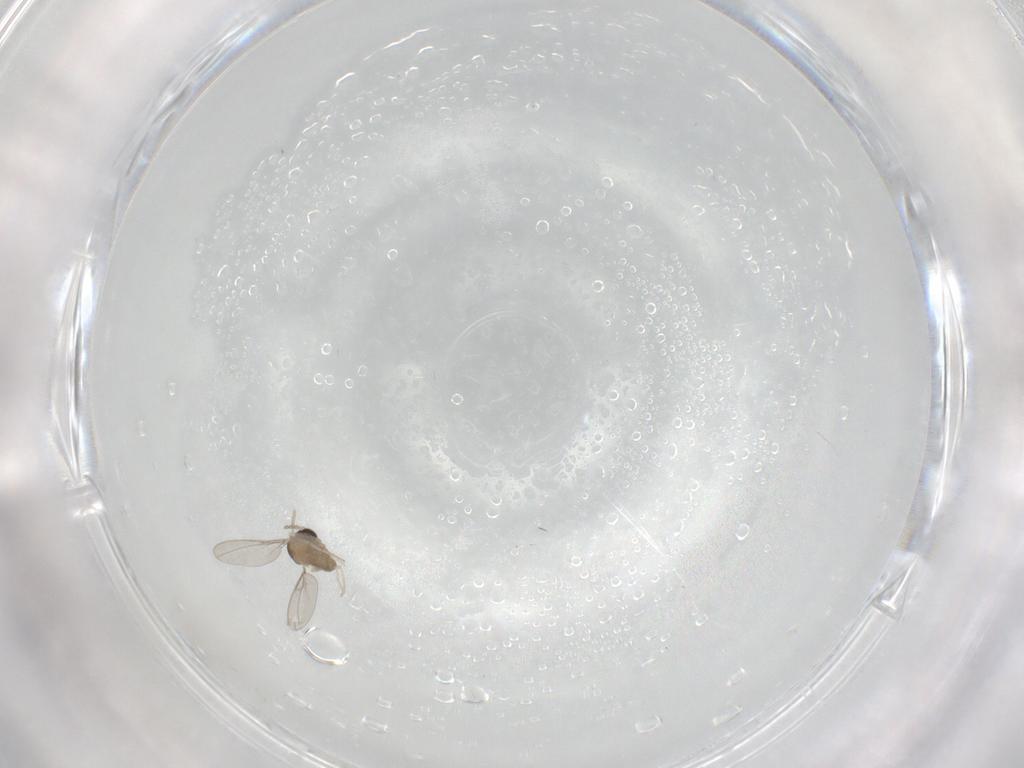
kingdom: Animalia
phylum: Arthropoda
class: Insecta
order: Diptera
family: Cecidomyiidae
